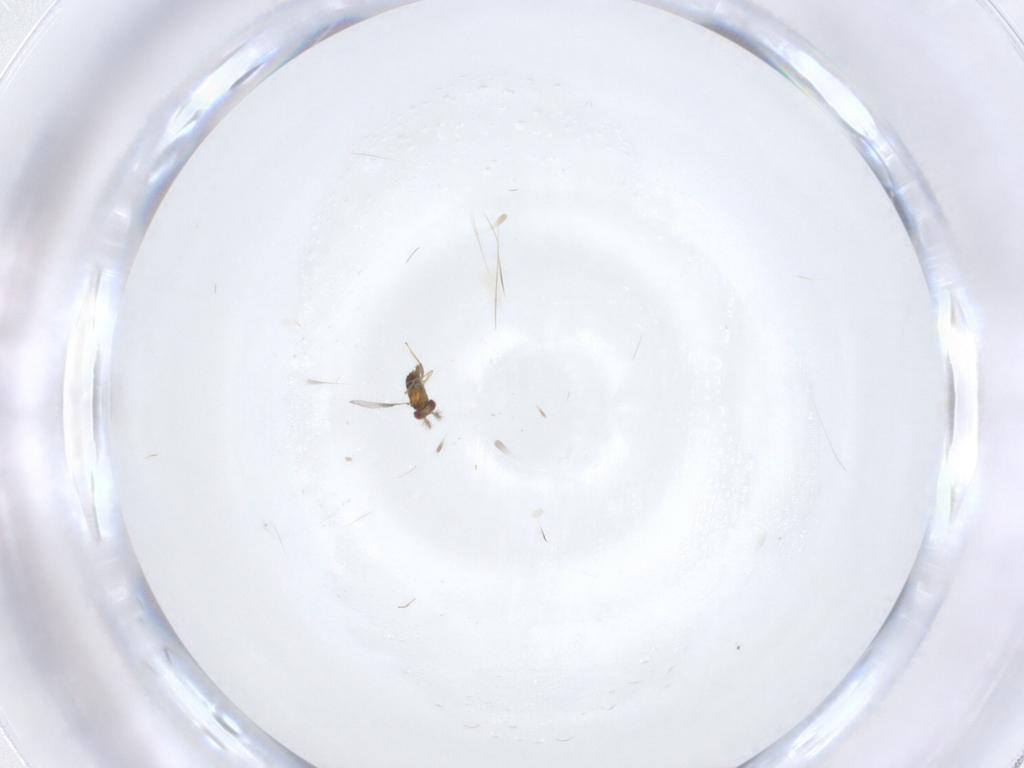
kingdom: Animalia
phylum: Arthropoda
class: Insecta
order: Hymenoptera
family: Trichogrammatidae
